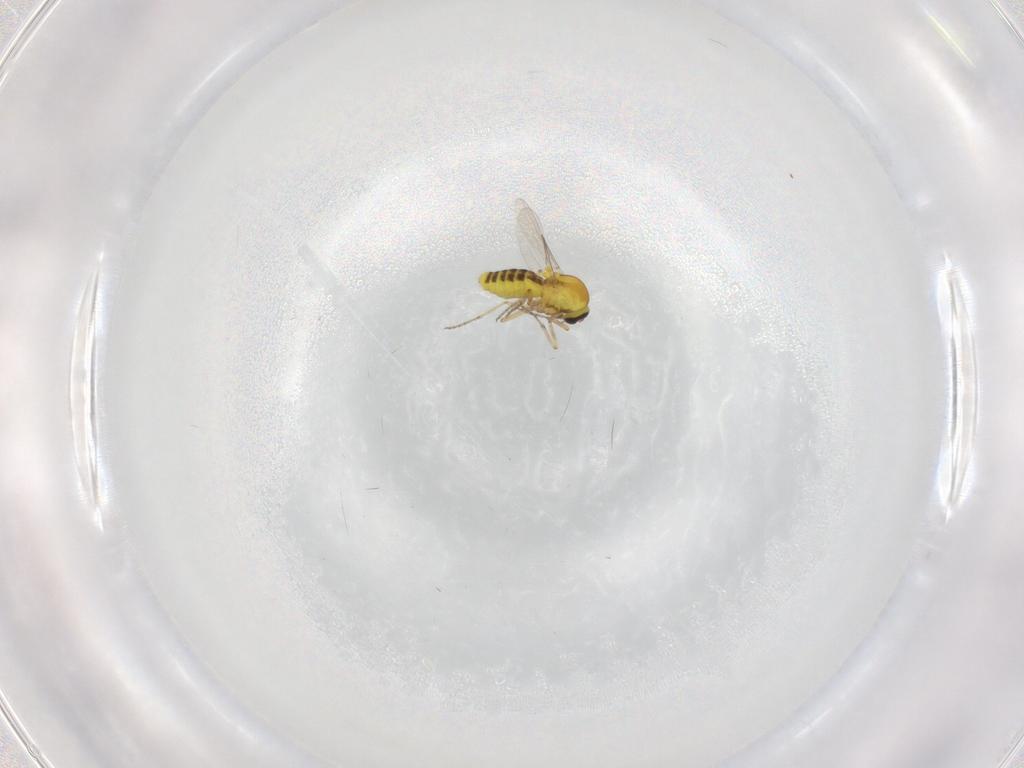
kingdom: Animalia
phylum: Arthropoda
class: Insecta
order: Diptera
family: Ceratopogonidae
